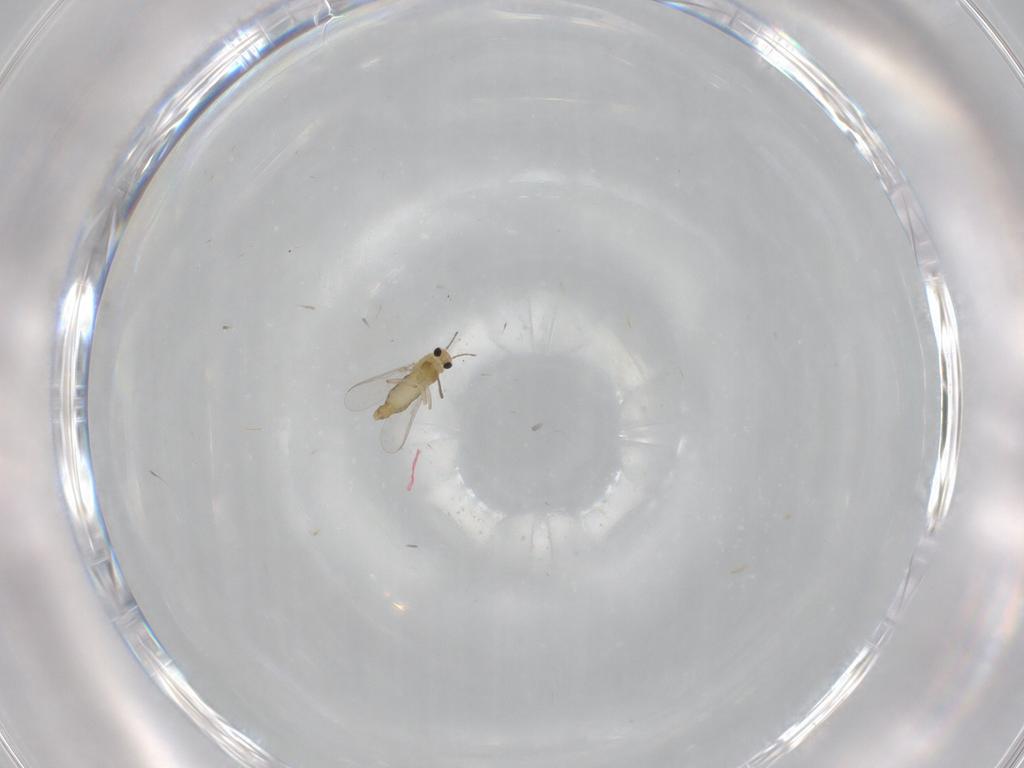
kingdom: Animalia
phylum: Arthropoda
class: Insecta
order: Diptera
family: Chironomidae
